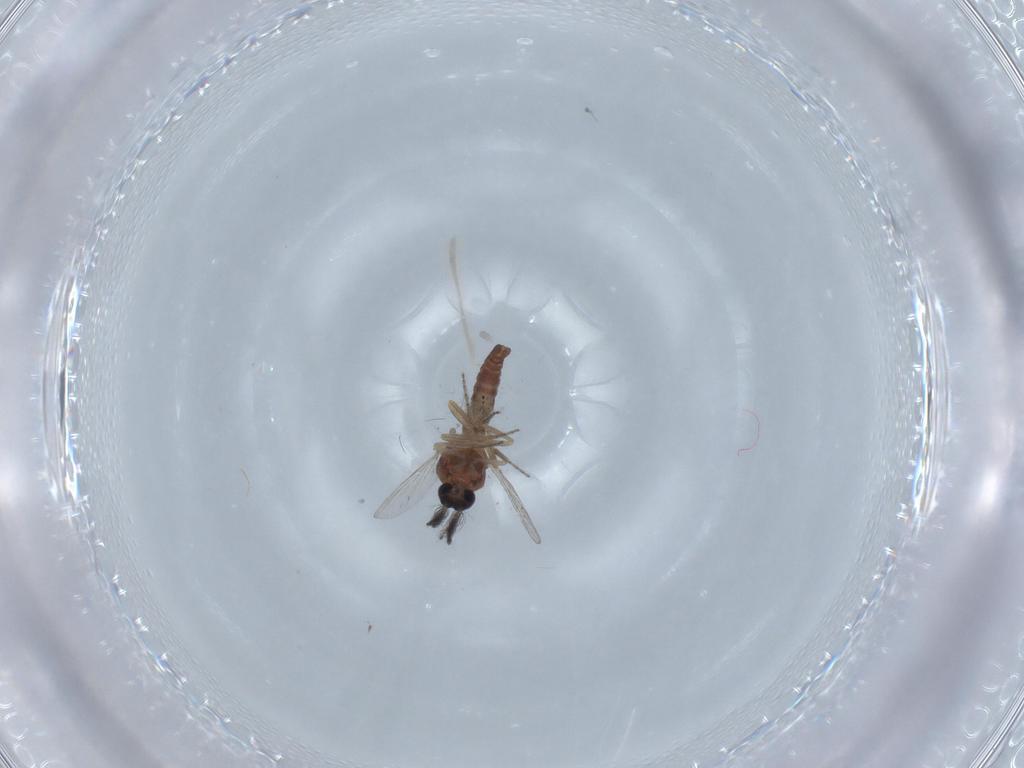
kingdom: Animalia
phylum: Arthropoda
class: Insecta
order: Diptera
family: Ceratopogonidae
